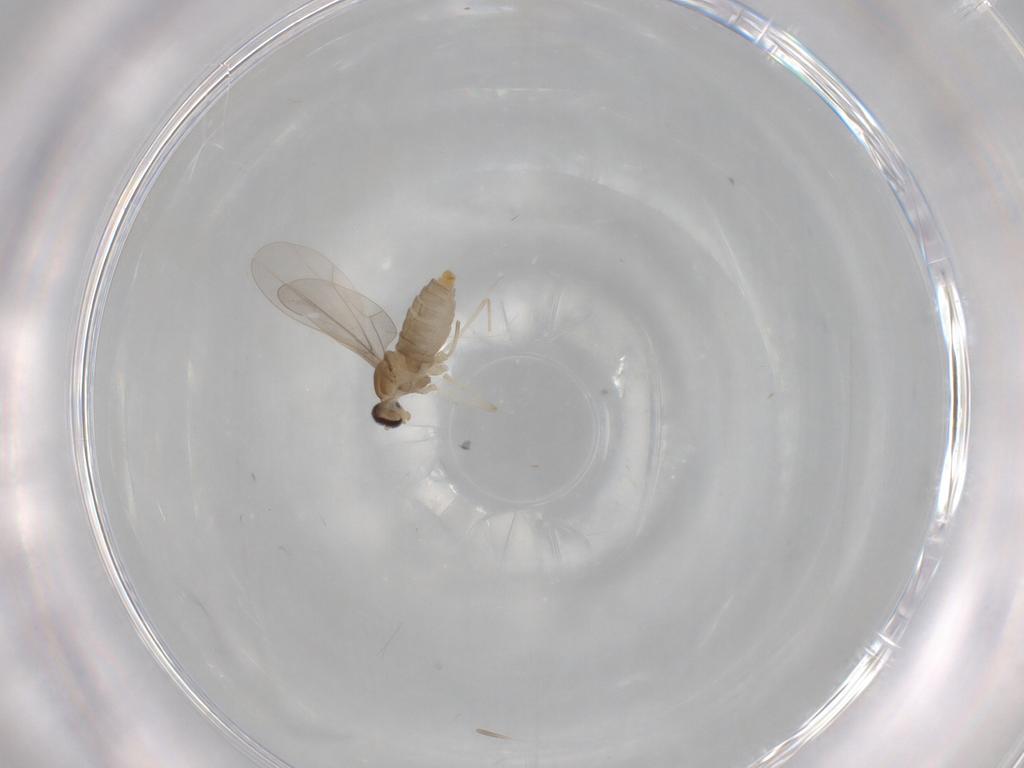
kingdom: Animalia
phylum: Arthropoda
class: Insecta
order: Diptera
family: Cecidomyiidae
